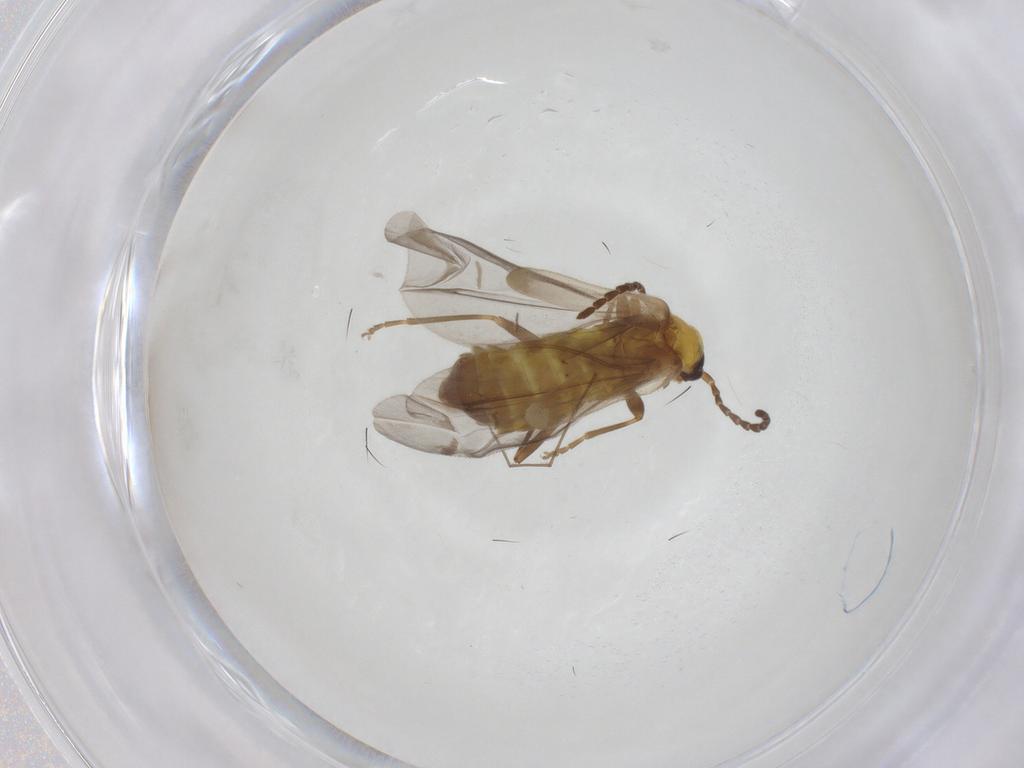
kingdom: Animalia
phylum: Arthropoda
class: Insecta
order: Coleoptera
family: Cantharidae
